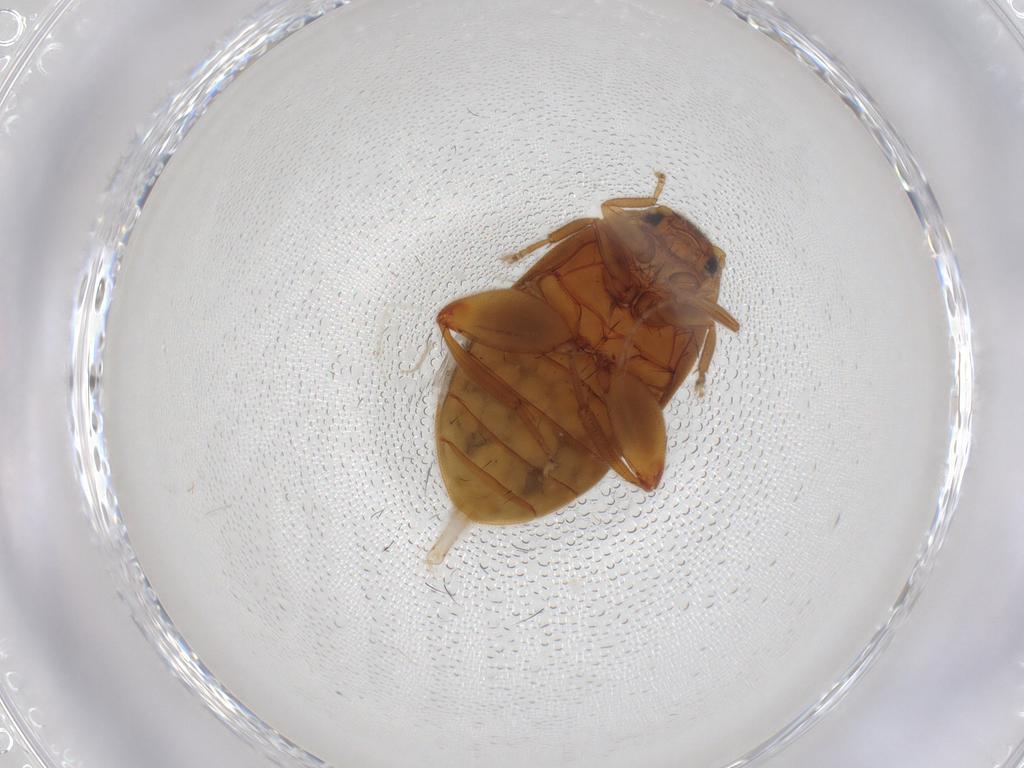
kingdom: Animalia
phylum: Arthropoda
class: Insecta
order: Coleoptera
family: Scirtidae
